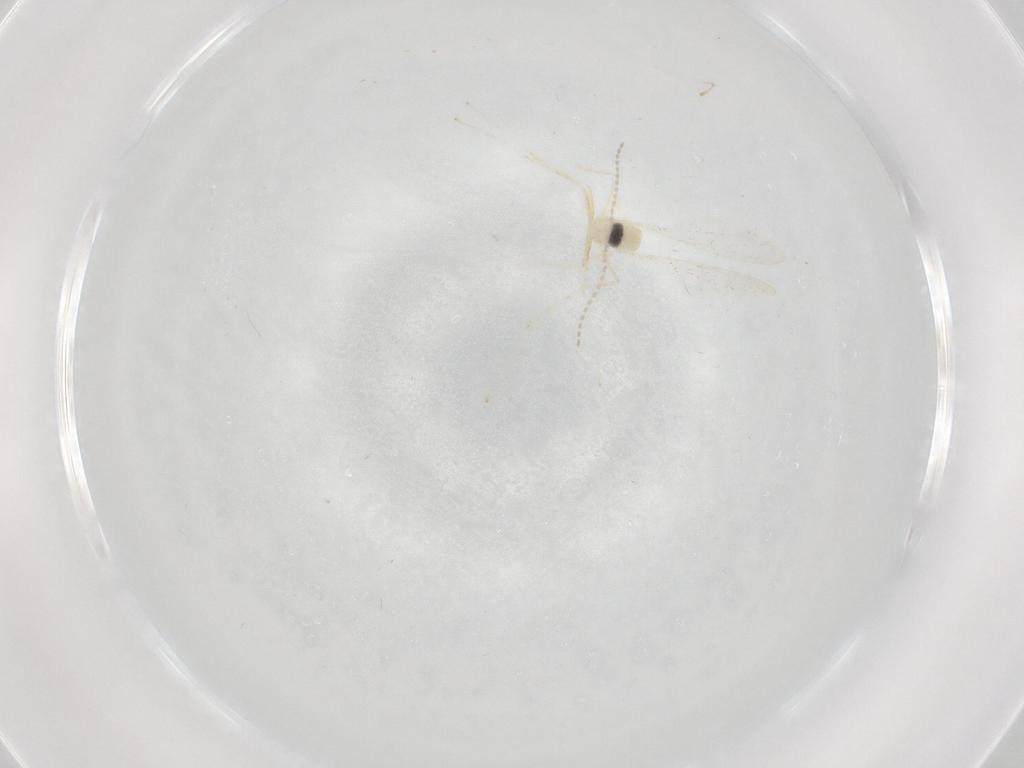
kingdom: Animalia
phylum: Arthropoda
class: Insecta
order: Diptera
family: Cecidomyiidae
